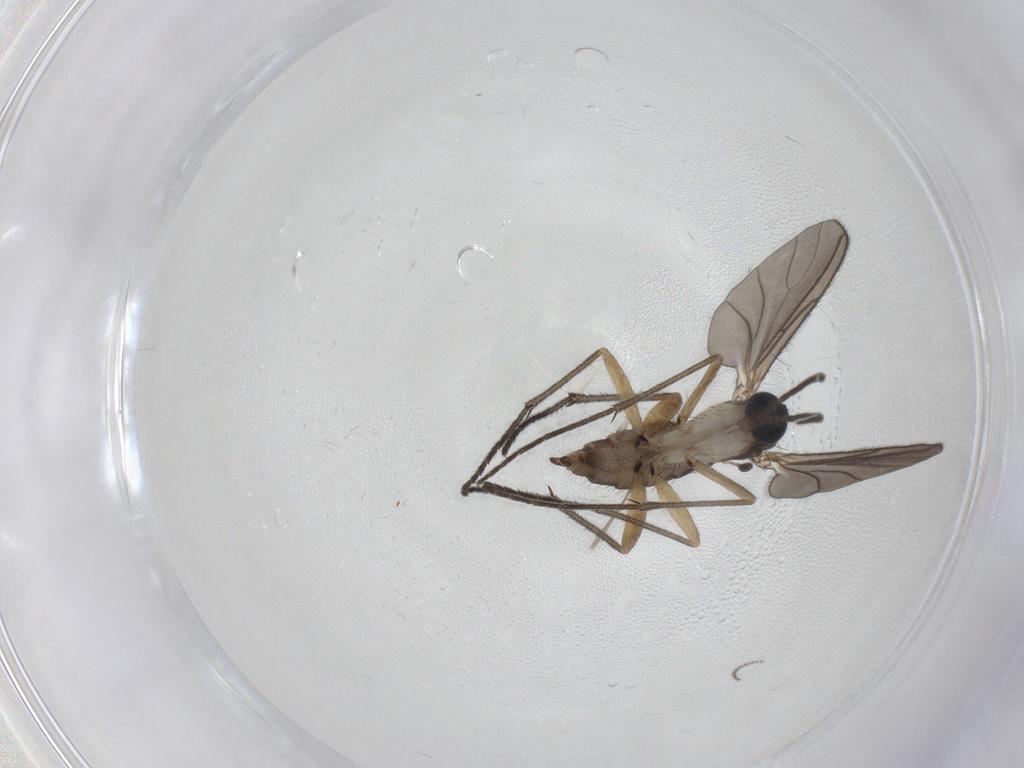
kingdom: Animalia
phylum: Arthropoda
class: Insecta
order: Diptera
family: Sciaridae
